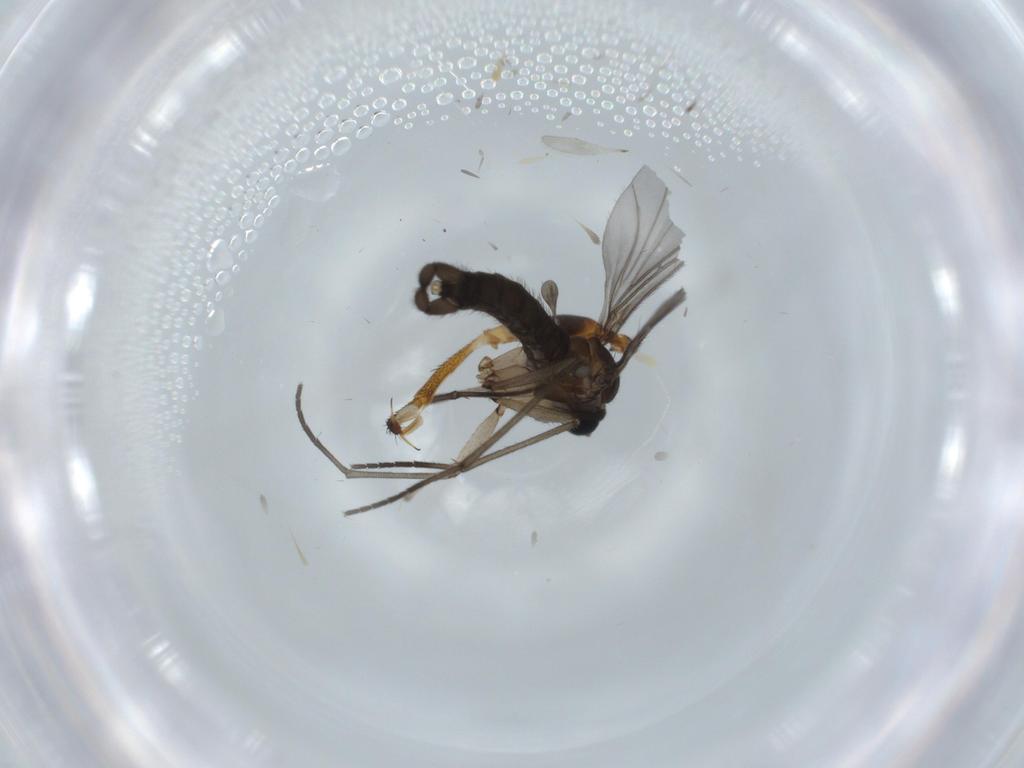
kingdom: Animalia
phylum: Arthropoda
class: Insecta
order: Diptera
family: Sciaridae
